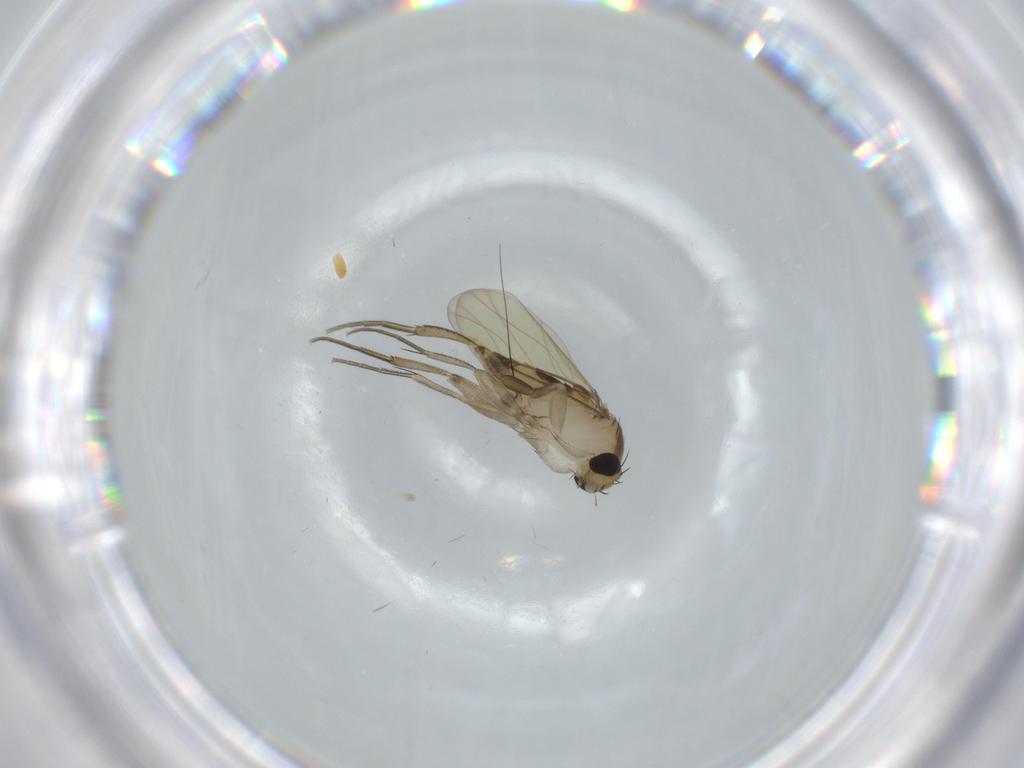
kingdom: Animalia
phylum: Arthropoda
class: Insecta
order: Diptera
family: Phoridae
